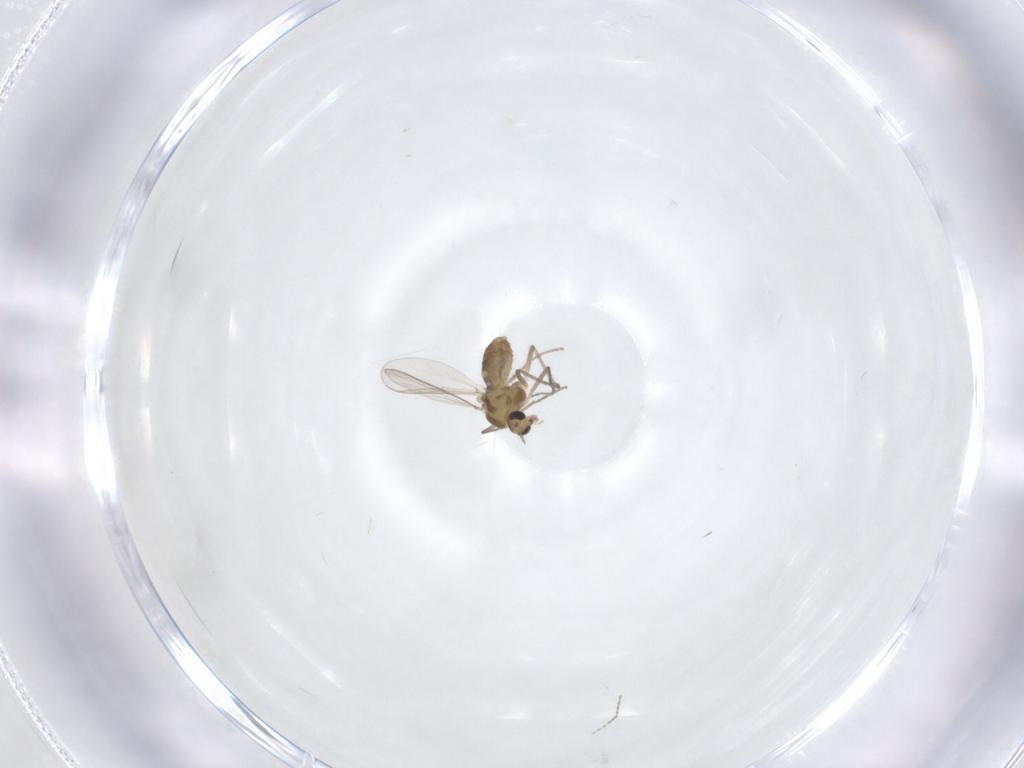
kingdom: Animalia
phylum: Arthropoda
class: Insecta
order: Diptera
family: Chironomidae
